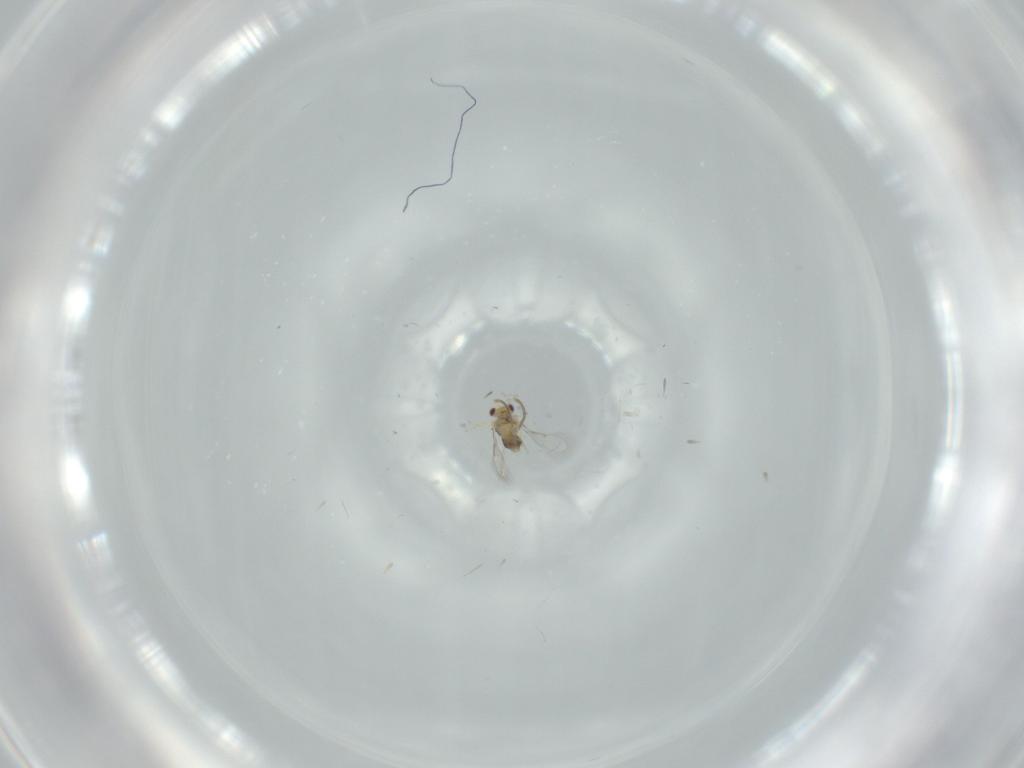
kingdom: Animalia
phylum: Arthropoda
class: Insecta
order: Hymenoptera
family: Aphelinidae
